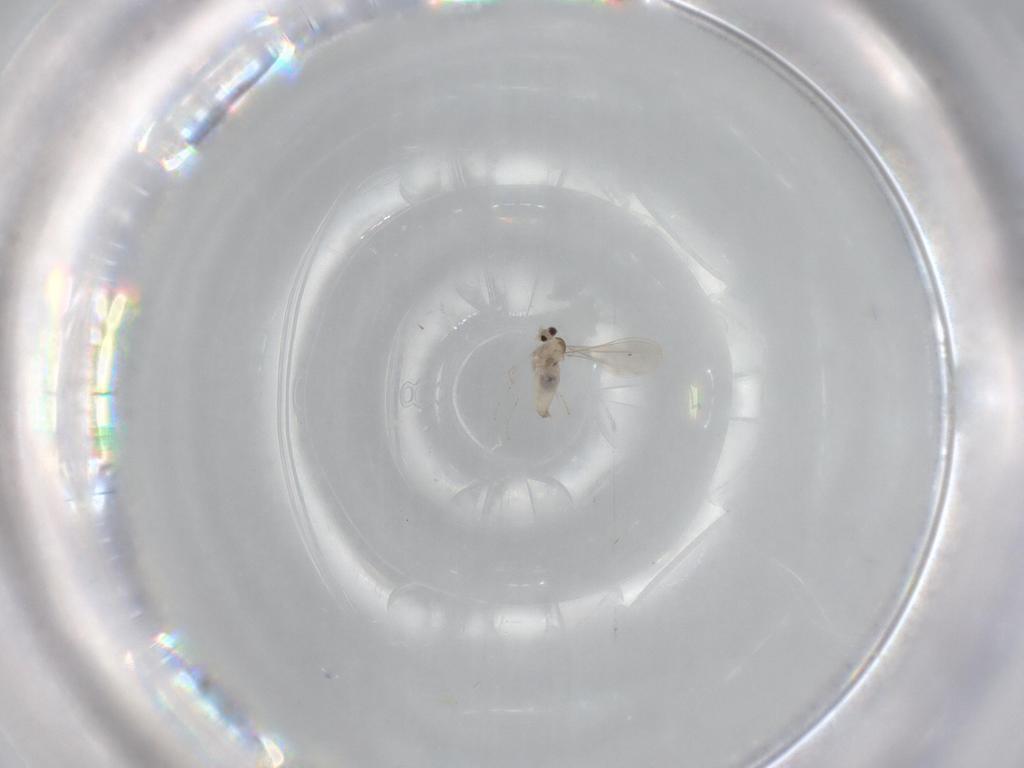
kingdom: Animalia
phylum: Arthropoda
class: Insecta
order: Diptera
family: Cecidomyiidae
